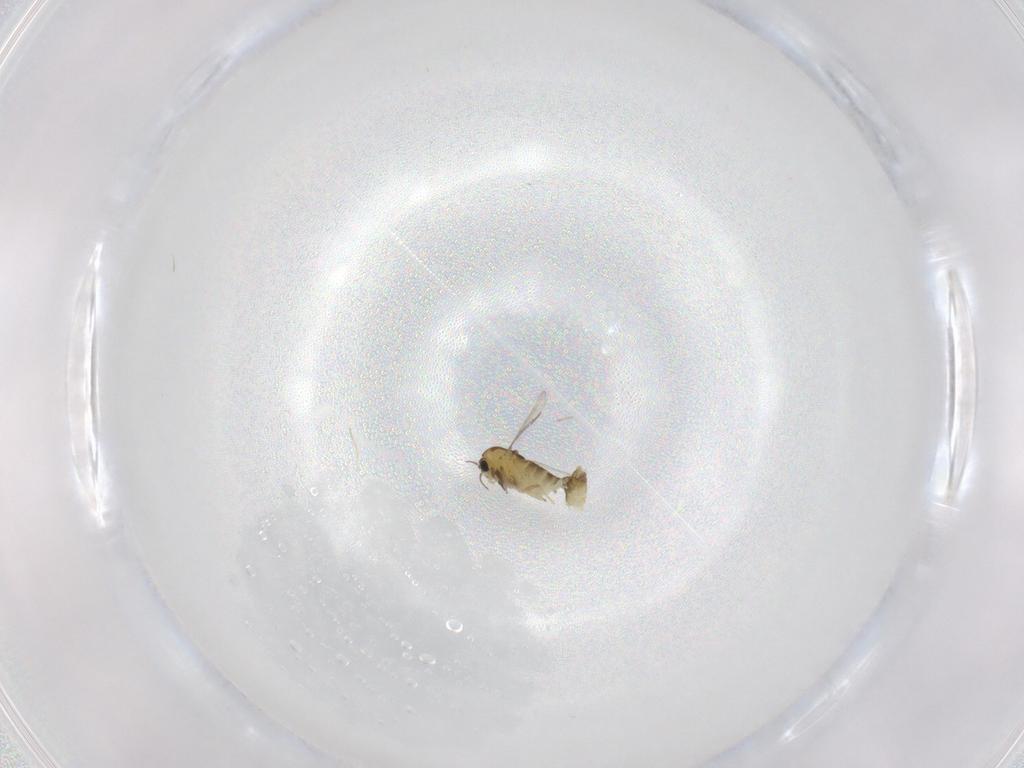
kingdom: Animalia
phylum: Arthropoda
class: Insecta
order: Diptera
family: Chironomidae
